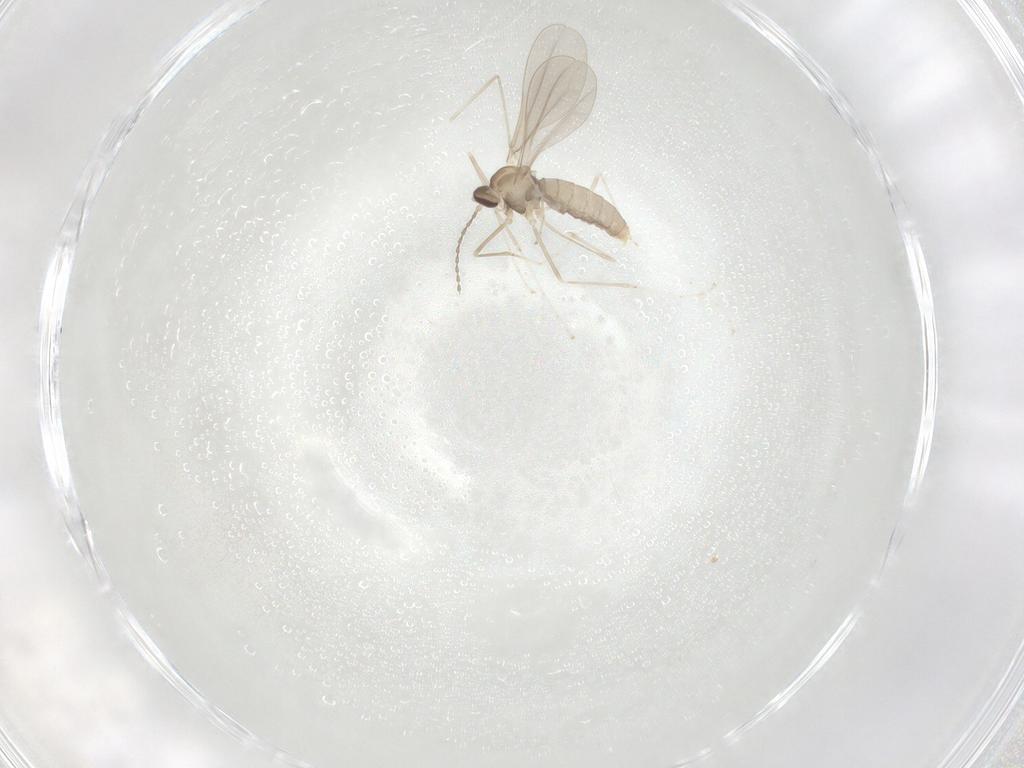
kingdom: Animalia
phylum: Arthropoda
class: Insecta
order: Diptera
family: Cecidomyiidae
